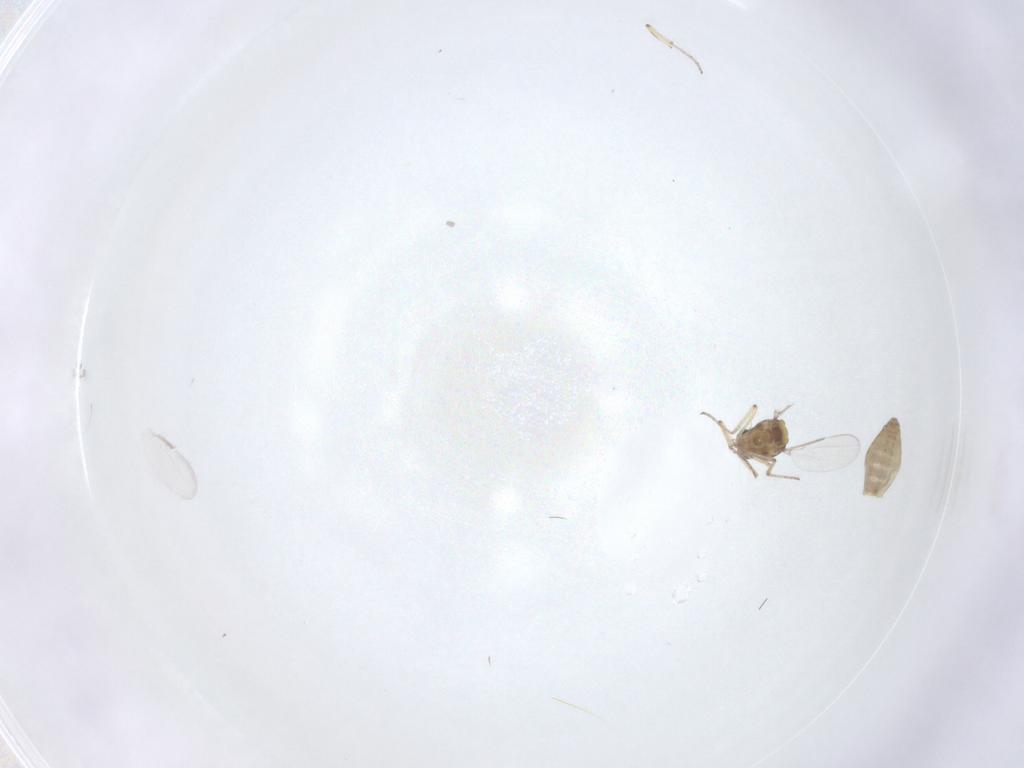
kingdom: Animalia
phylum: Arthropoda
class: Insecta
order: Diptera
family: Ceratopogonidae
